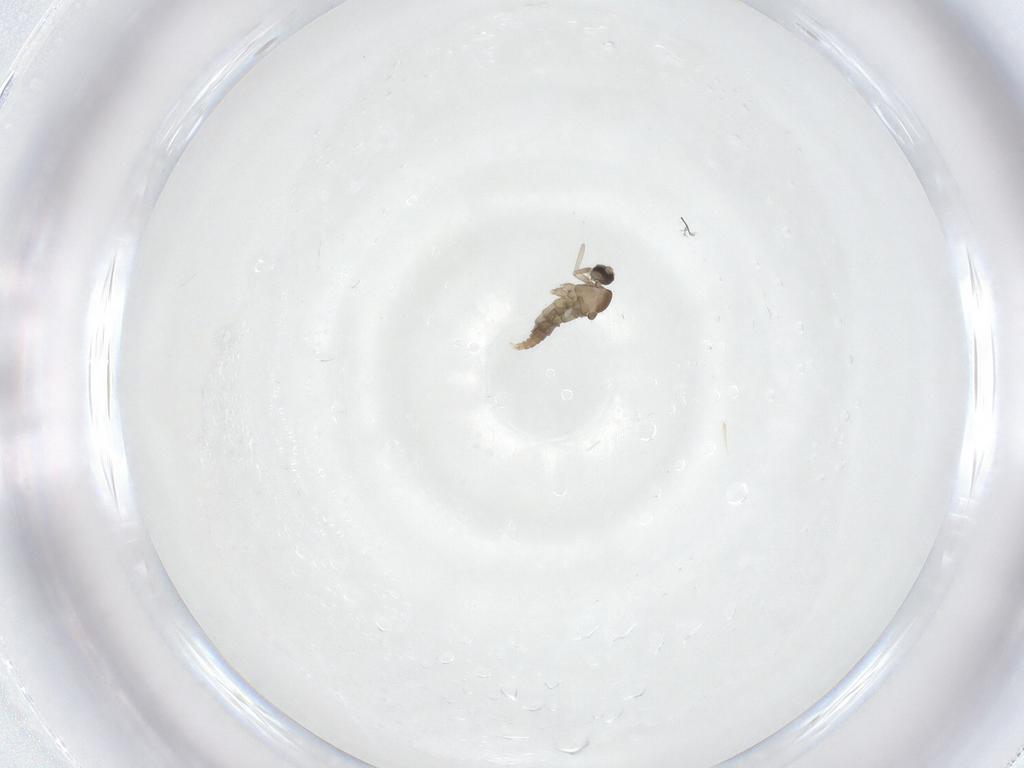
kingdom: Animalia
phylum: Arthropoda
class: Insecta
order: Diptera
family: Cecidomyiidae
